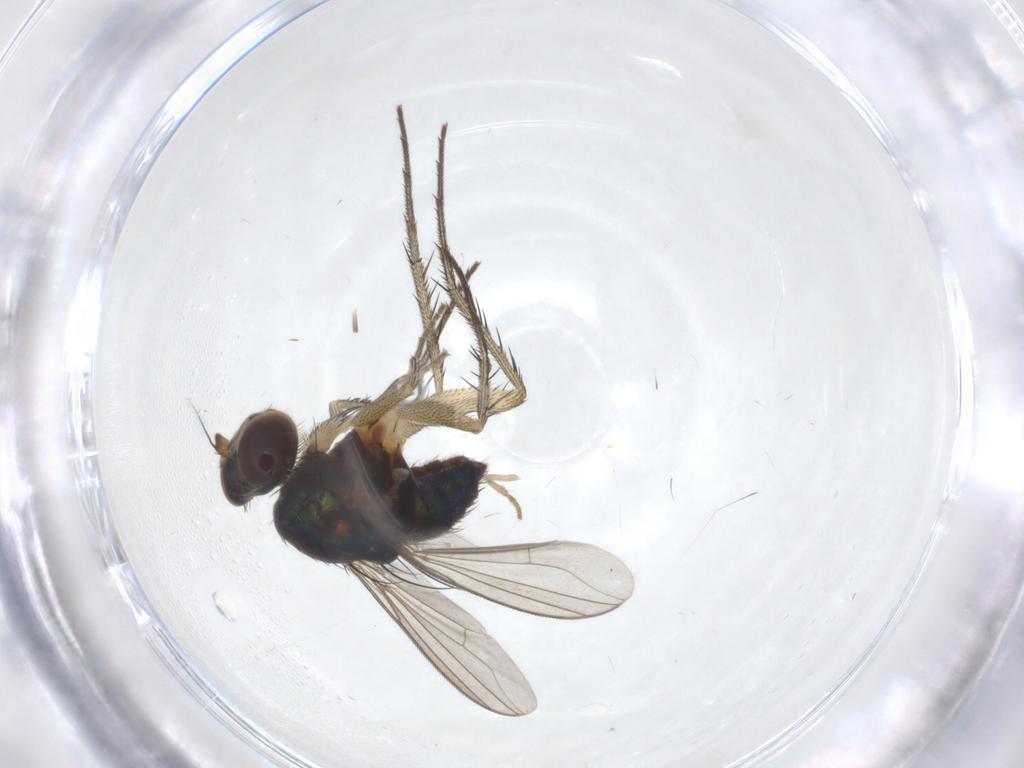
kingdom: Animalia
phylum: Arthropoda
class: Insecta
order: Diptera
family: Dolichopodidae
